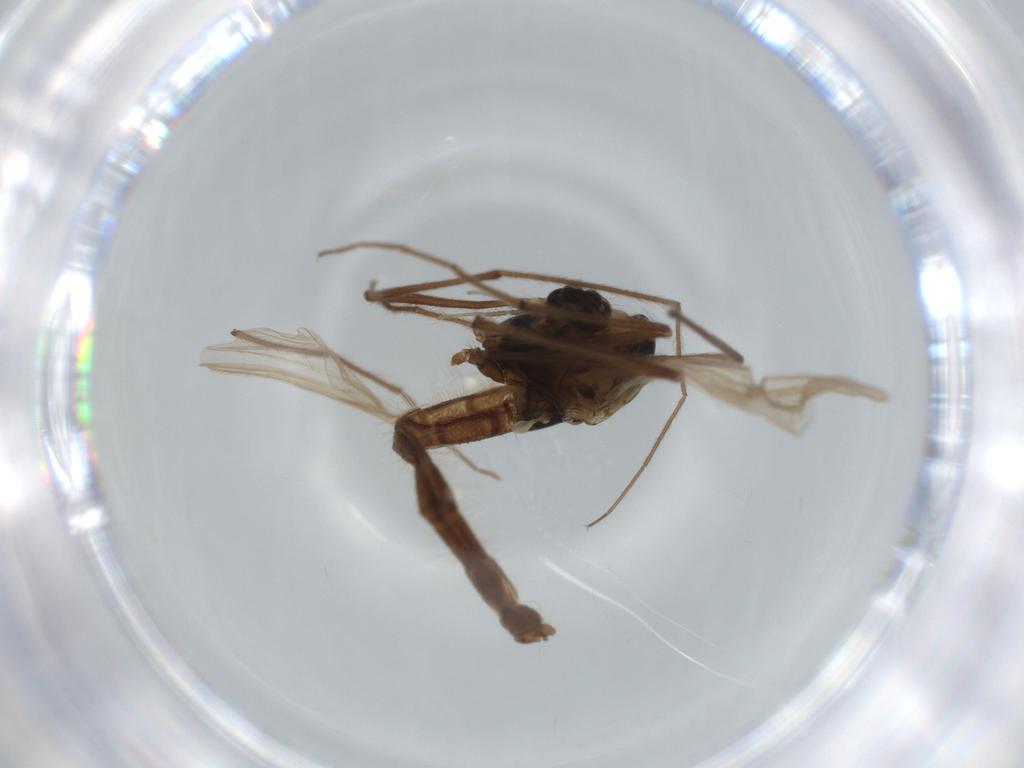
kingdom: Animalia
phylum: Arthropoda
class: Insecta
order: Diptera
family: Chironomidae
